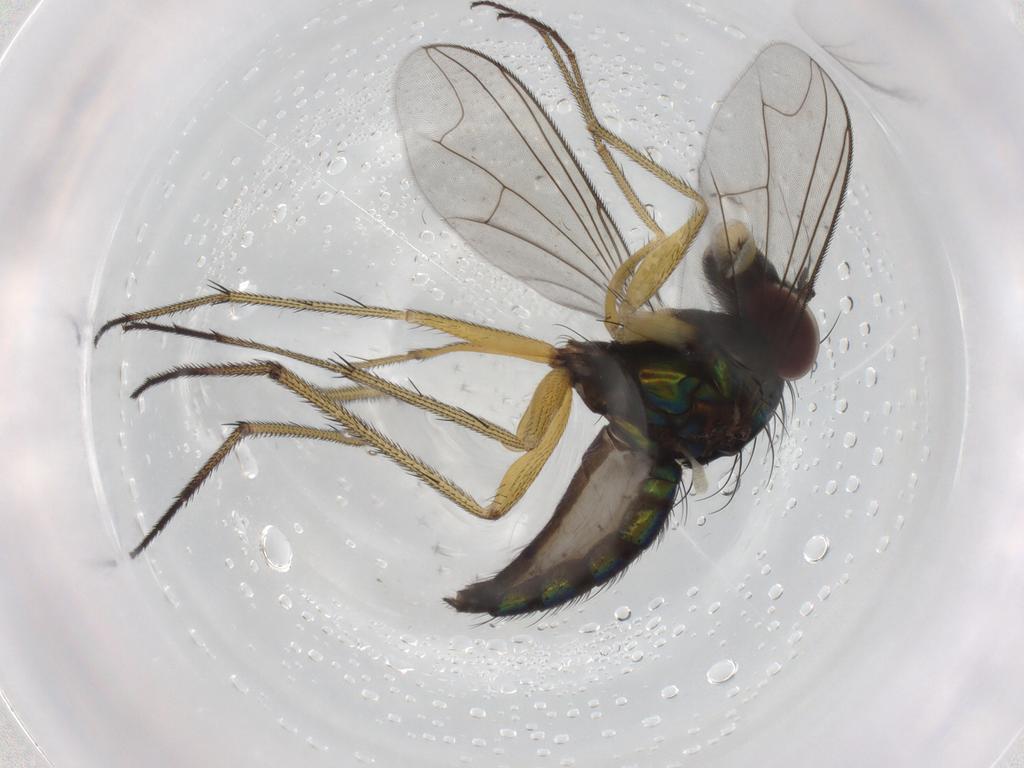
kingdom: Animalia
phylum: Arthropoda
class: Insecta
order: Diptera
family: Dolichopodidae
